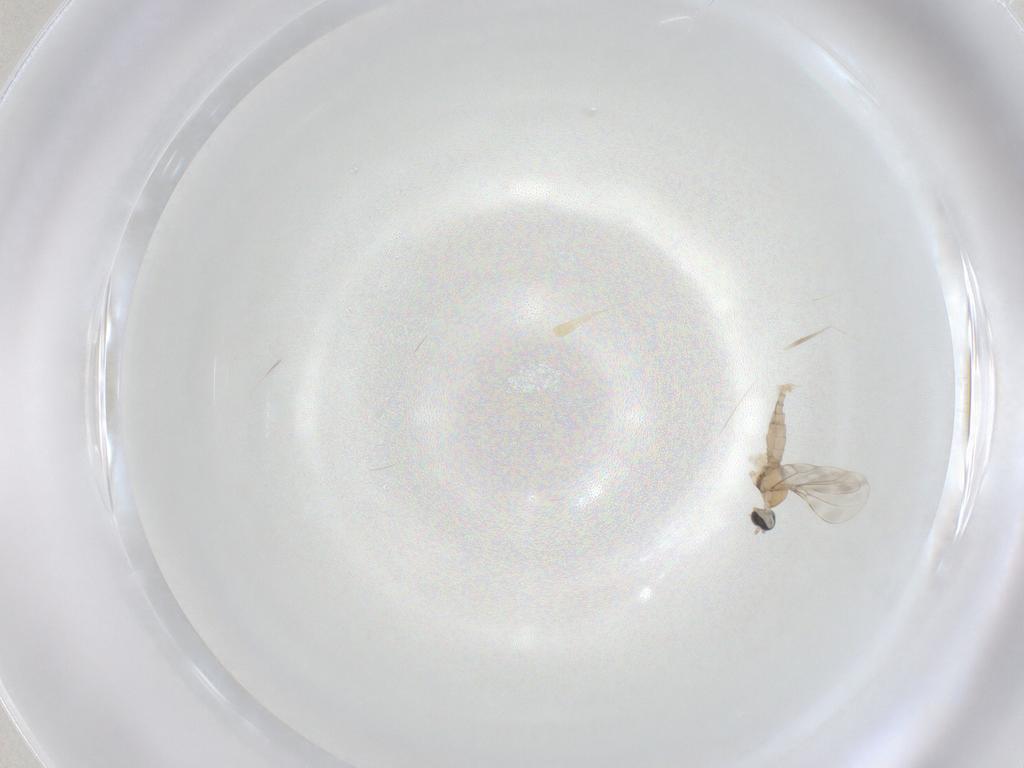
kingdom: Animalia
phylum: Arthropoda
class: Insecta
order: Diptera
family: Cecidomyiidae
